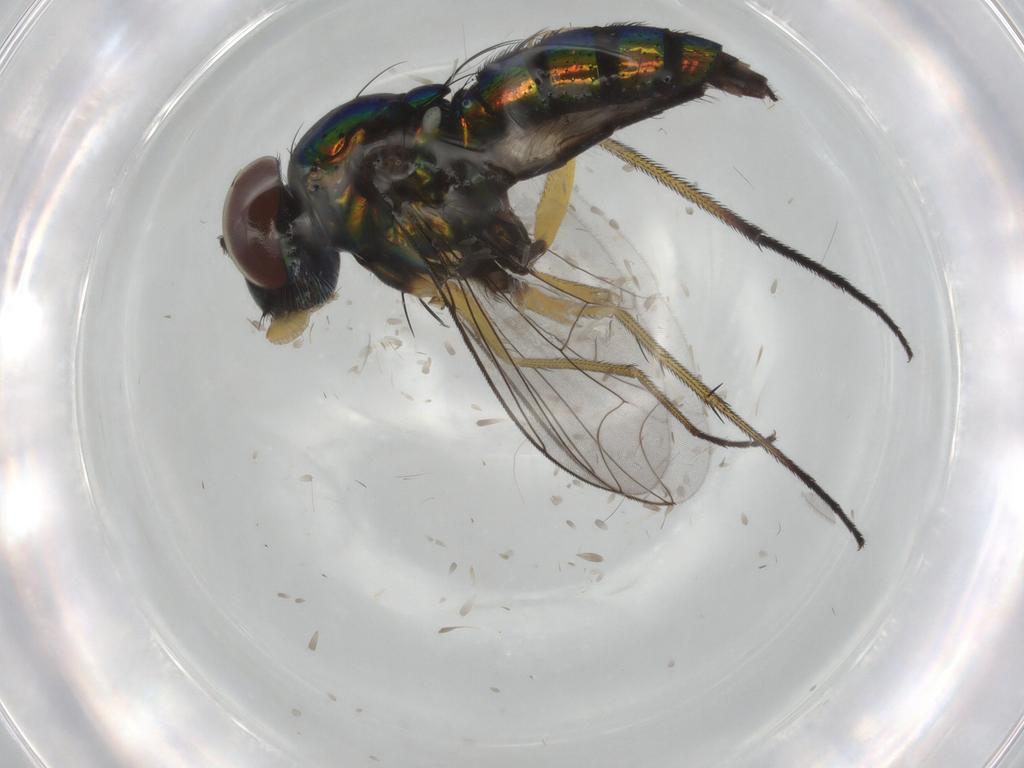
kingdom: Animalia
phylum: Arthropoda
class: Insecta
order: Diptera
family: Dolichopodidae
